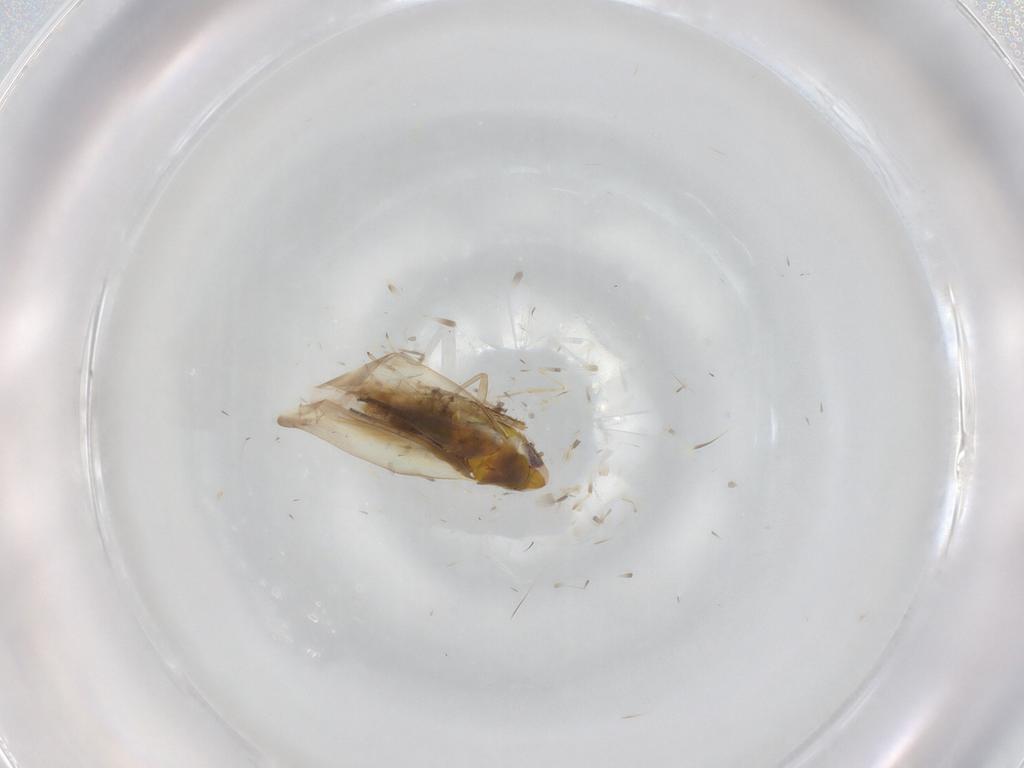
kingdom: Animalia
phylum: Arthropoda
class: Insecta
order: Hemiptera
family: Cicadellidae
